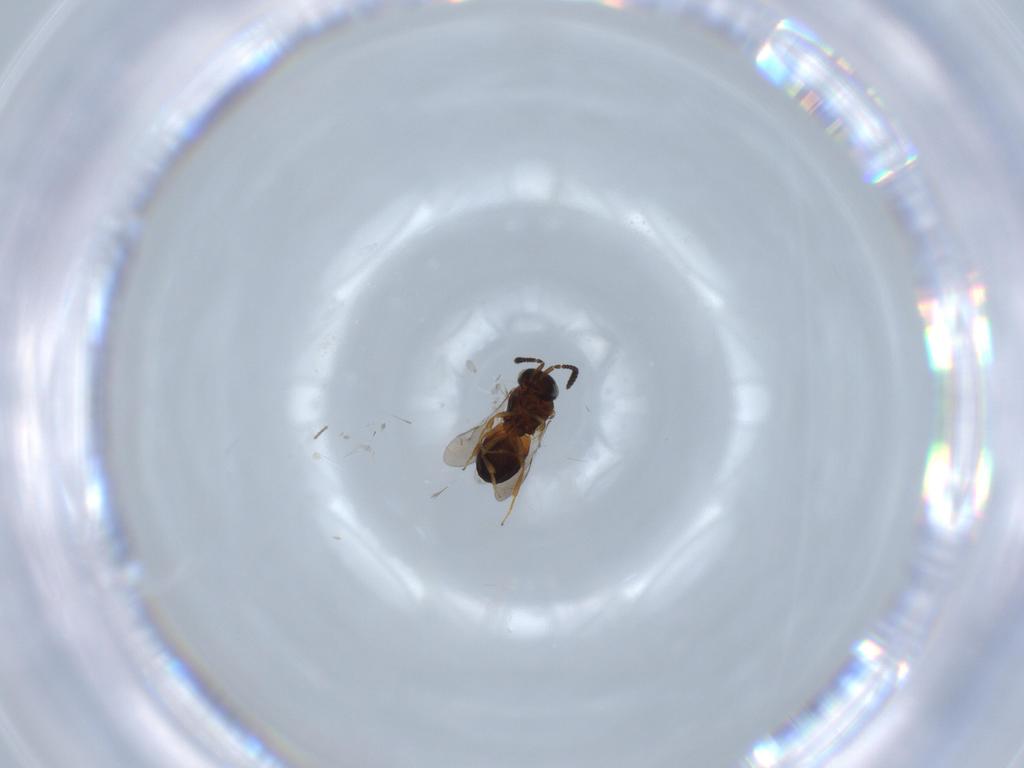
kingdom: Animalia
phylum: Arthropoda
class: Insecta
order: Hymenoptera
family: Scelionidae
